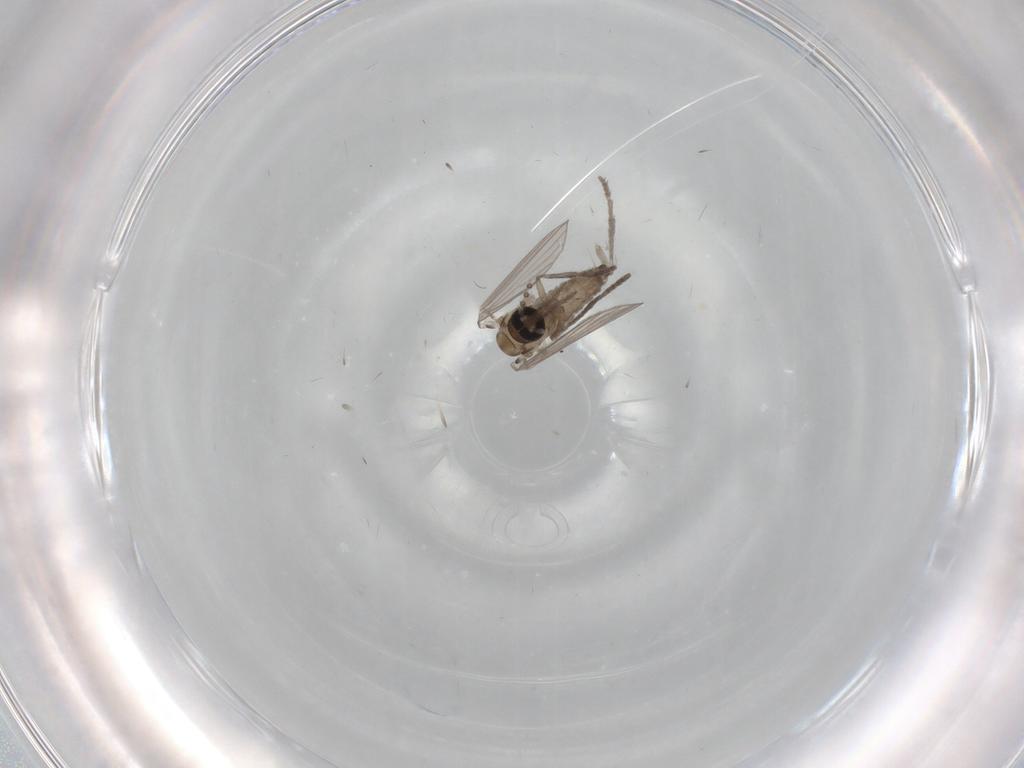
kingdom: Animalia
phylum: Arthropoda
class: Insecta
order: Diptera
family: Psychodidae
